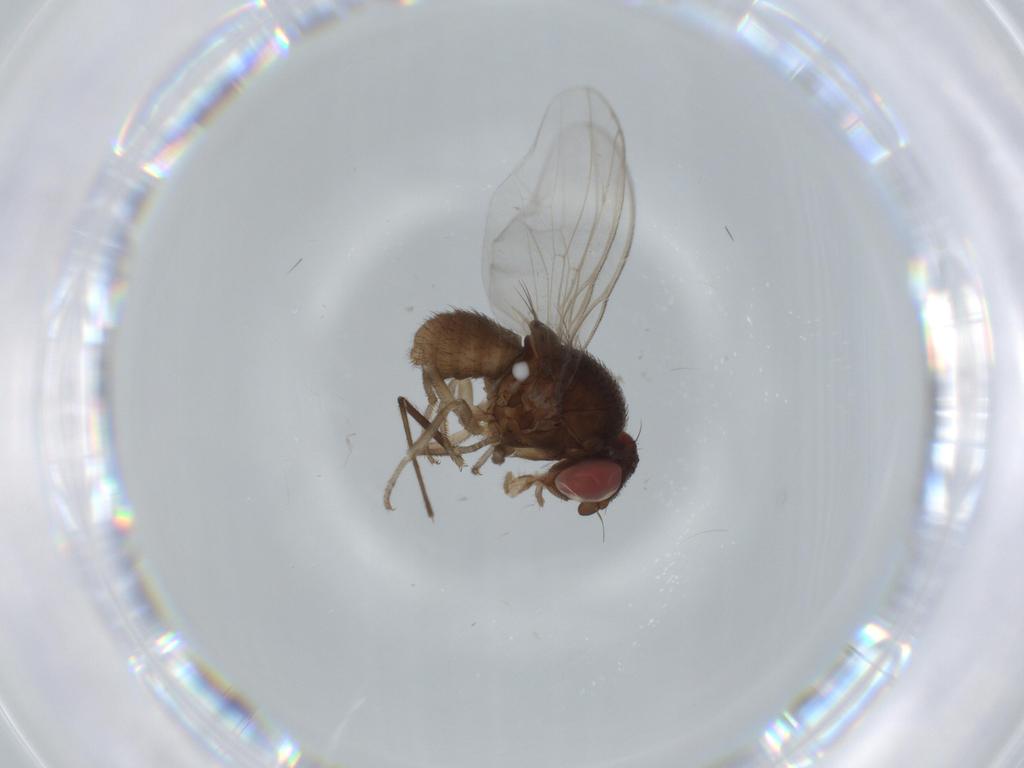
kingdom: Animalia
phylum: Arthropoda
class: Insecta
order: Diptera
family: Chironomidae
